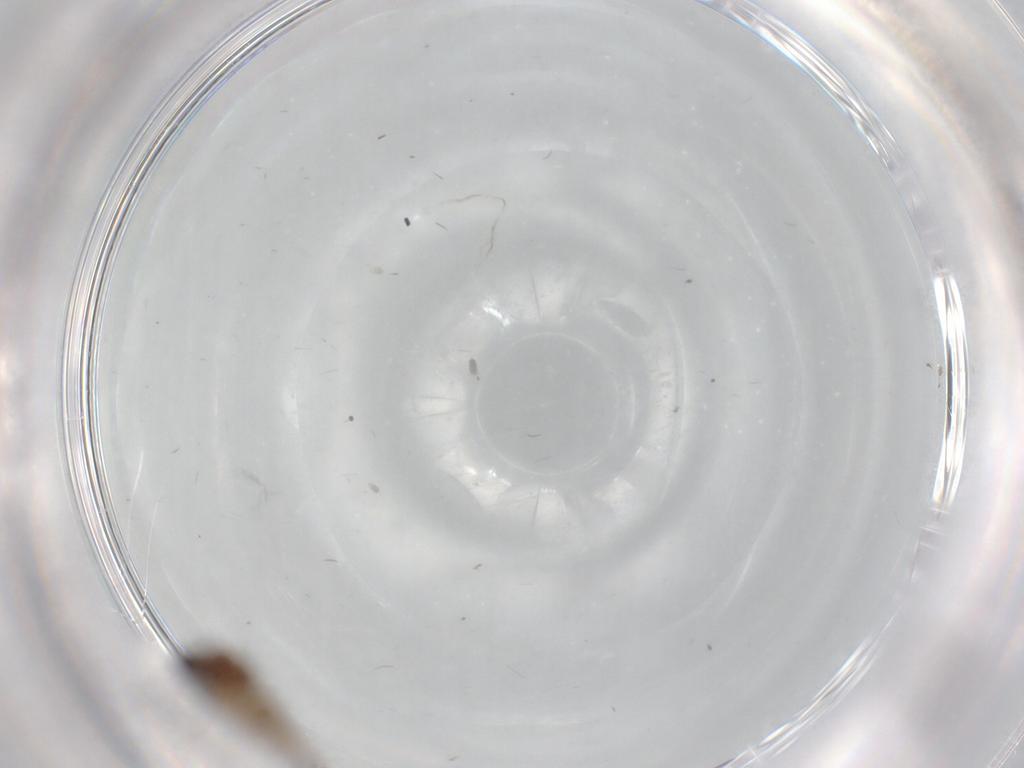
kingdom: Animalia
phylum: Arthropoda
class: Insecta
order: Diptera
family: Ceratopogonidae
